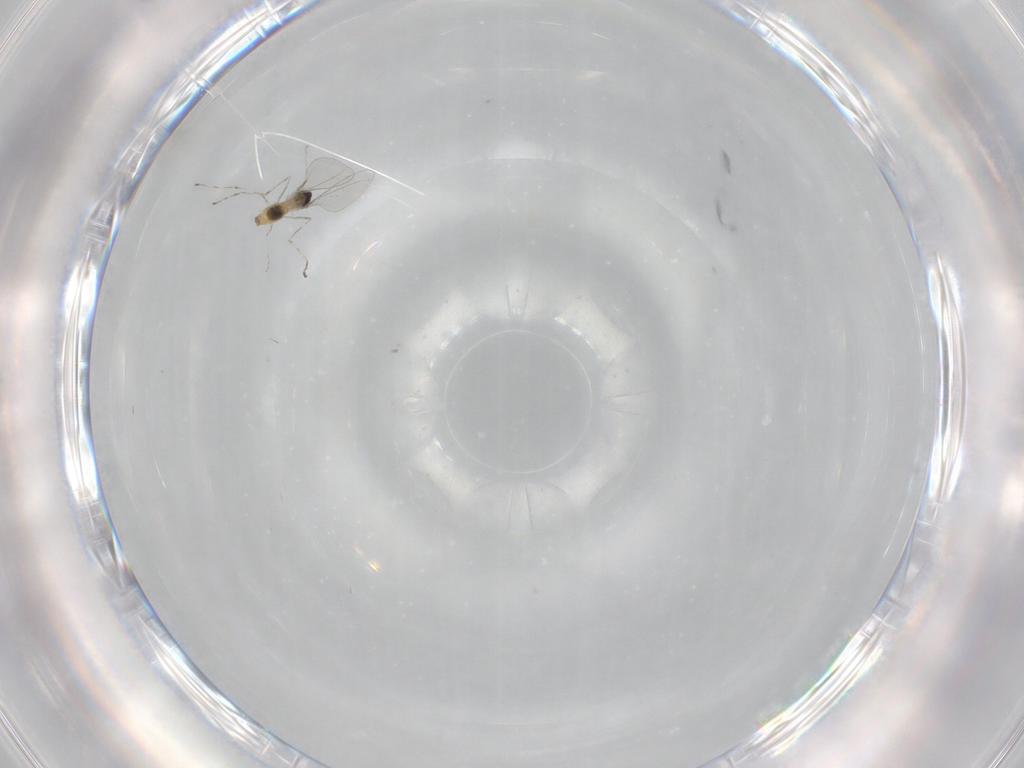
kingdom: Animalia
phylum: Arthropoda
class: Insecta
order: Diptera
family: Cecidomyiidae
